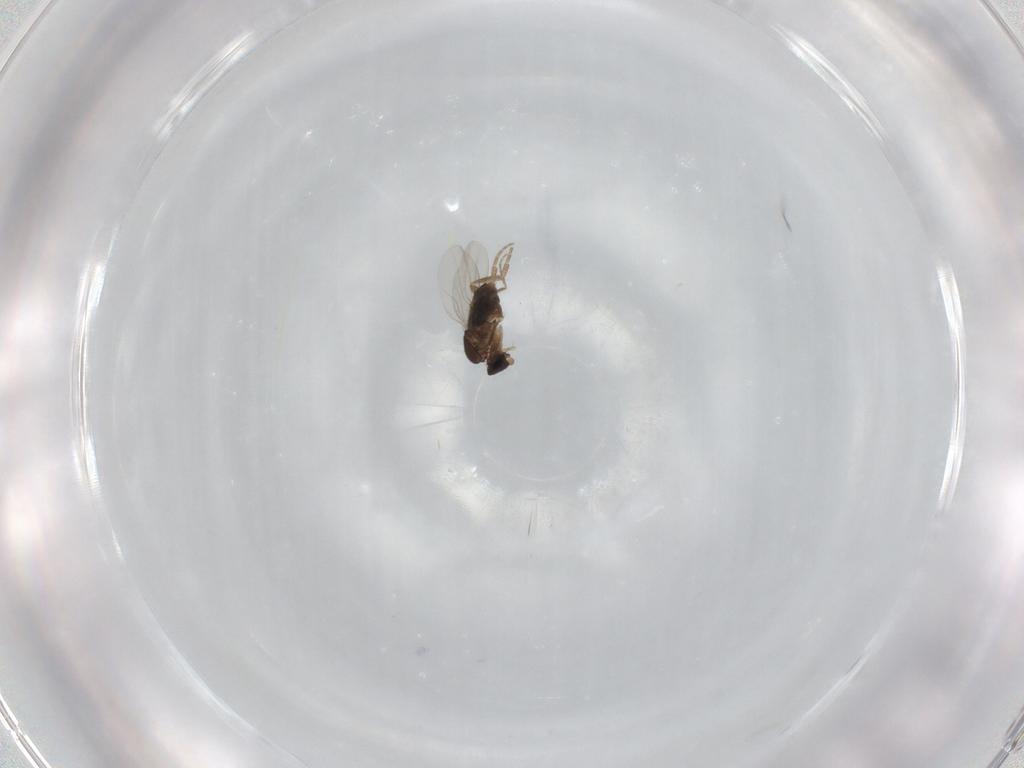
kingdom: Animalia
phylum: Arthropoda
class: Insecta
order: Diptera
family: Phoridae
